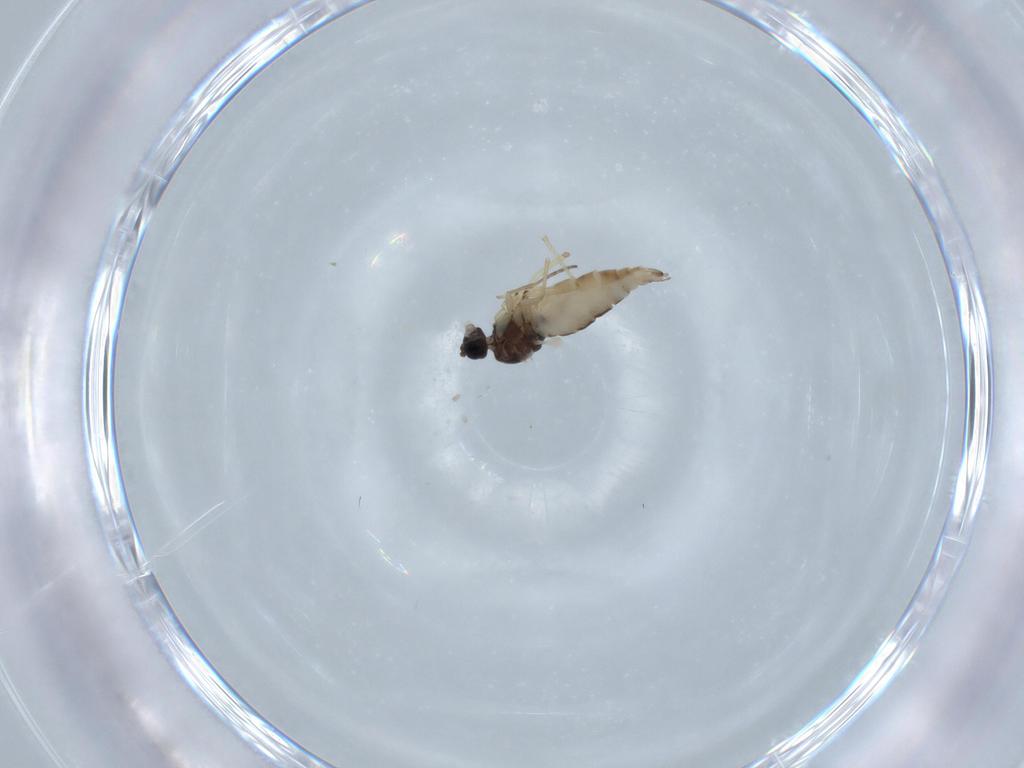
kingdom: Animalia
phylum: Arthropoda
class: Insecta
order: Diptera
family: Sciaridae
